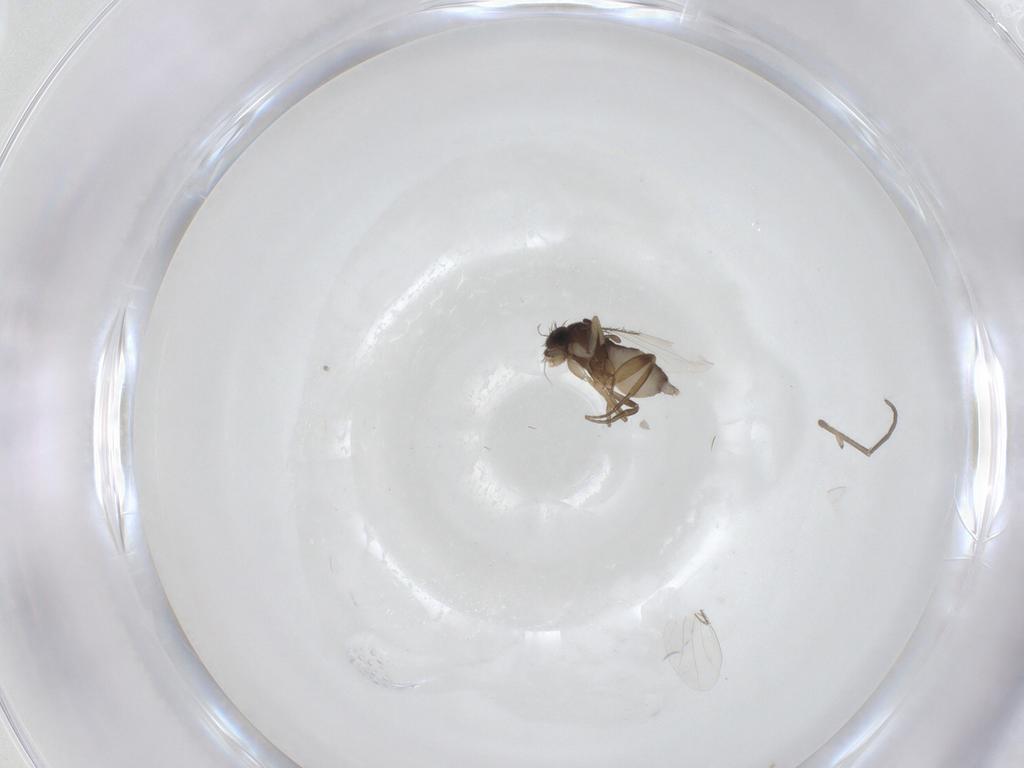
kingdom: Animalia
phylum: Arthropoda
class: Insecta
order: Diptera
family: Phoridae
